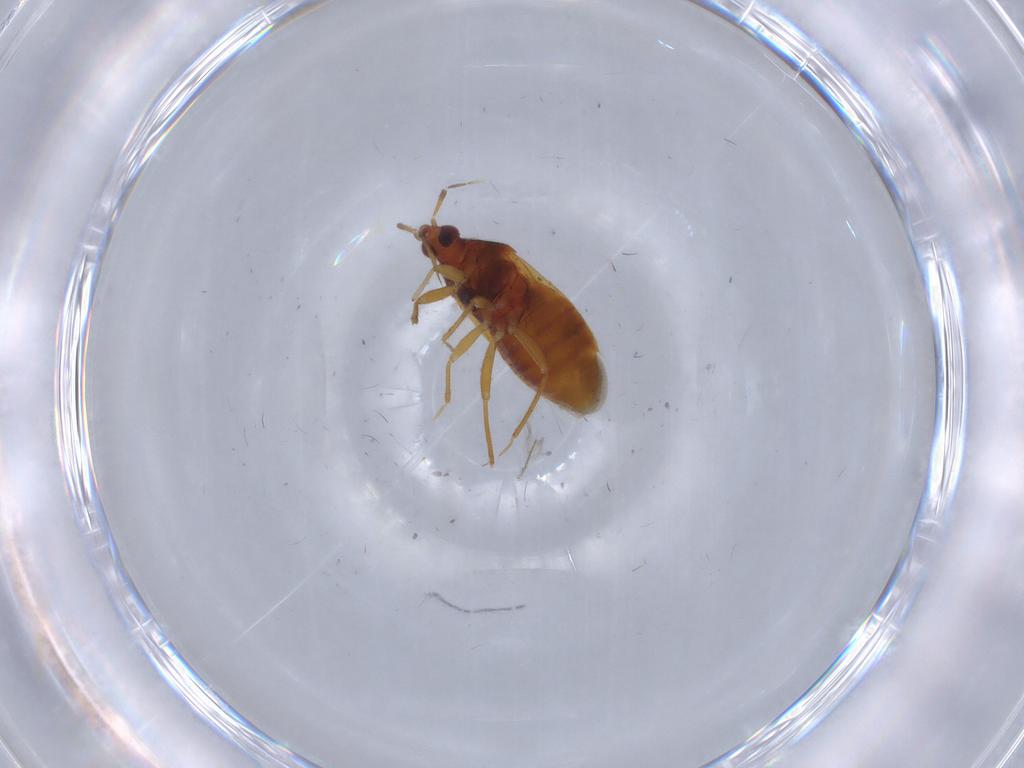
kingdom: Animalia
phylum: Arthropoda
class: Insecta
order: Hemiptera
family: Anthocoridae
